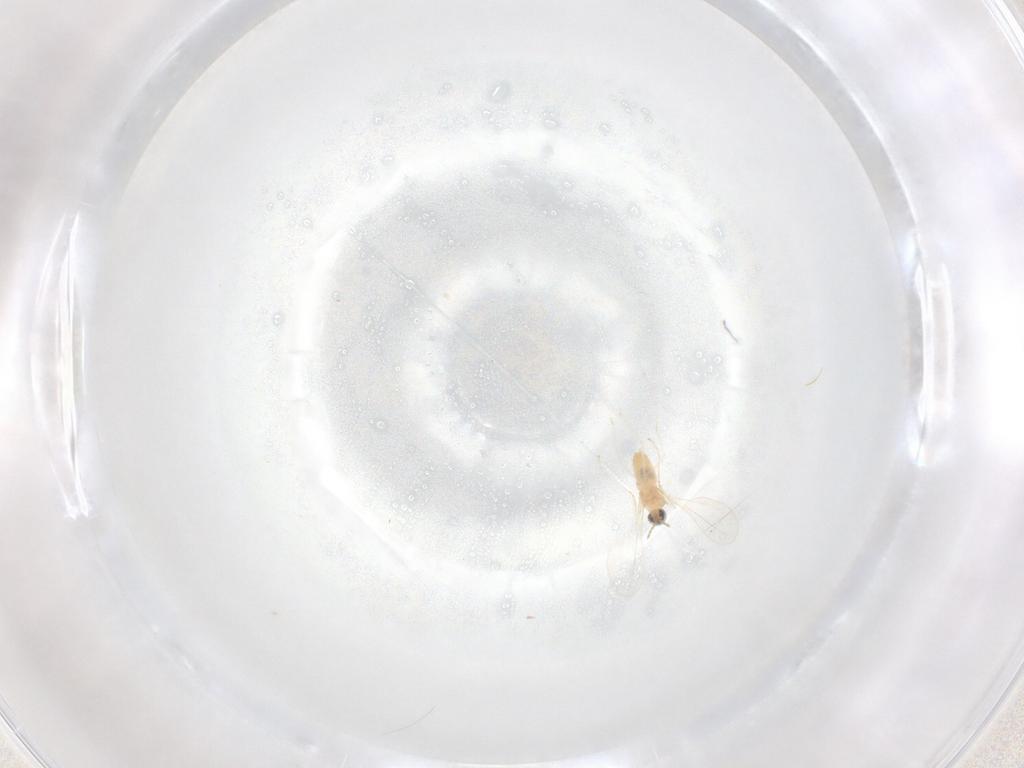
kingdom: Animalia
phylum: Arthropoda
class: Insecta
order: Diptera
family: Cecidomyiidae
